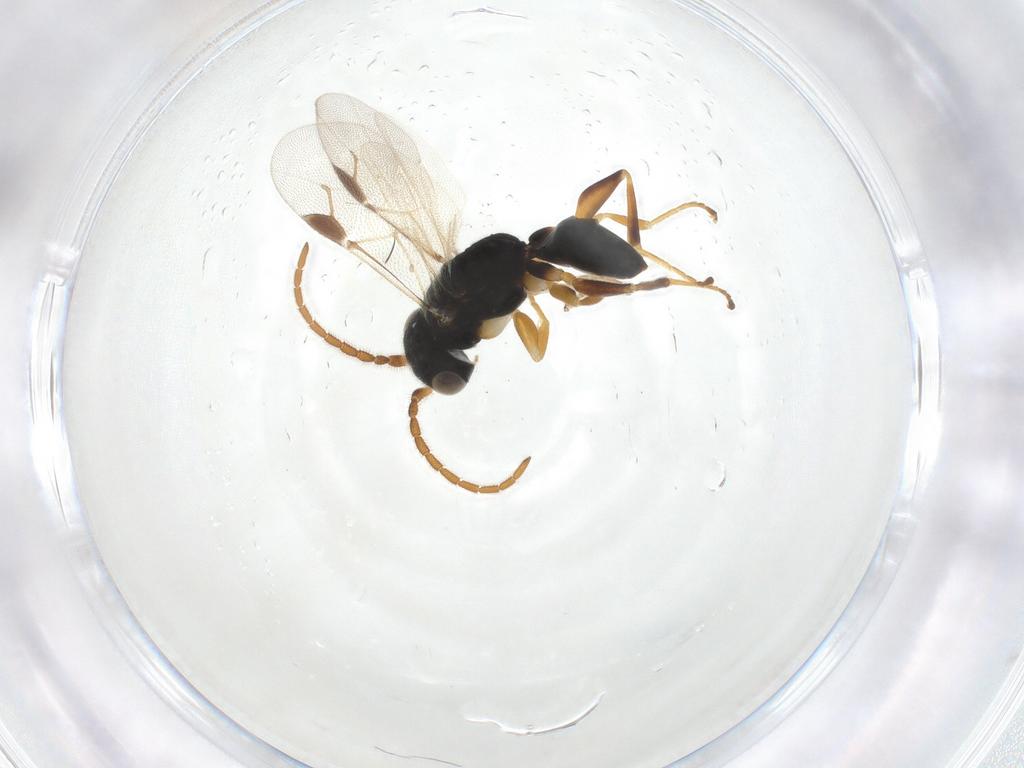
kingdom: Animalia
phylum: Arthropoda
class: Insecta
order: Hymenoptera
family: Dryinidae
